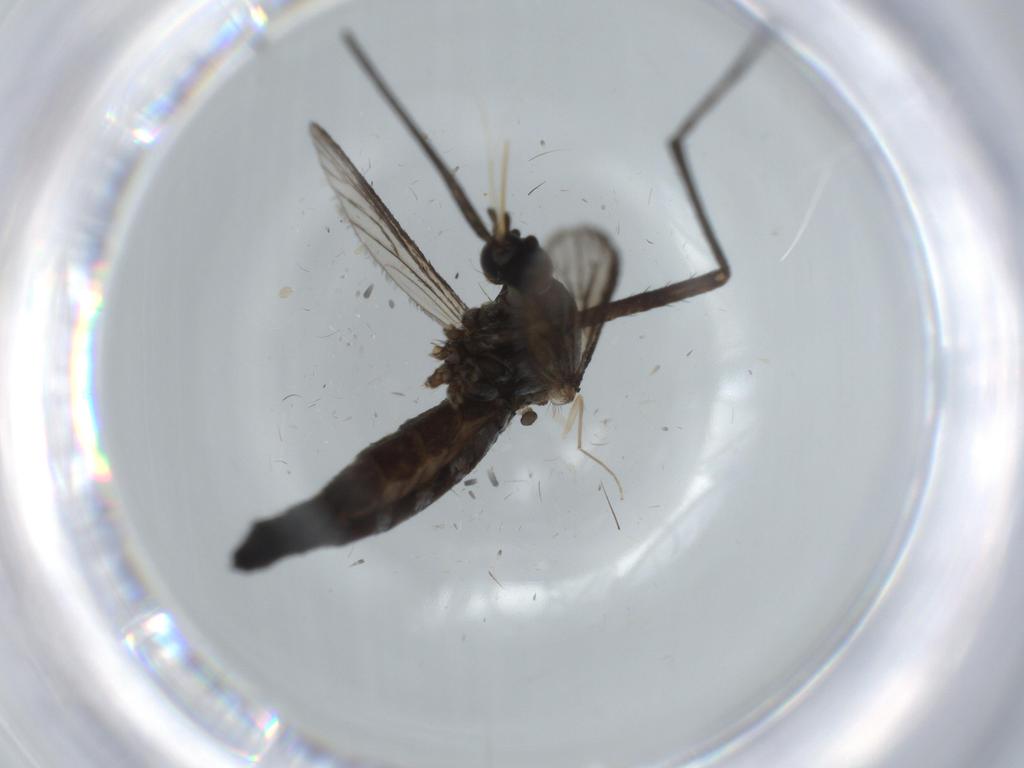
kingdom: Animalia
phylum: Arthropoda
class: Insecta
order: Diptera
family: Phoridae
